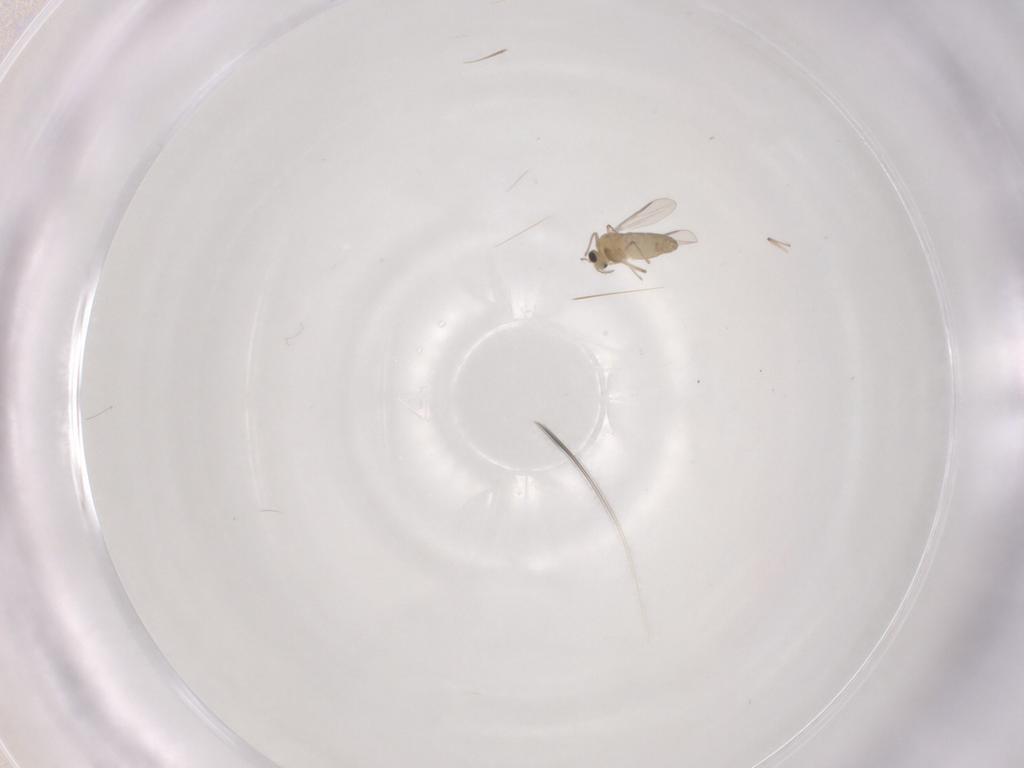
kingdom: Animalia
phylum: Arthropoda
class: Insecta
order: Diptera
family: Chironomidae
